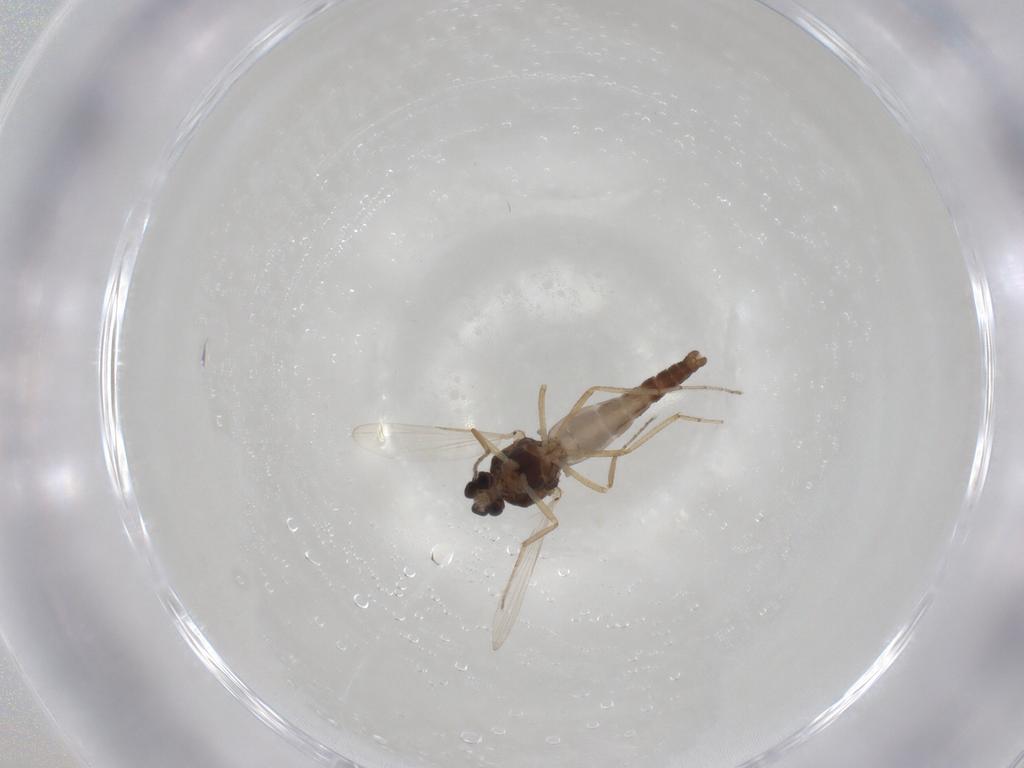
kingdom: Animalia
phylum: Arthropoda
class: Insecta
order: Diptera
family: Ceratopogonidae
